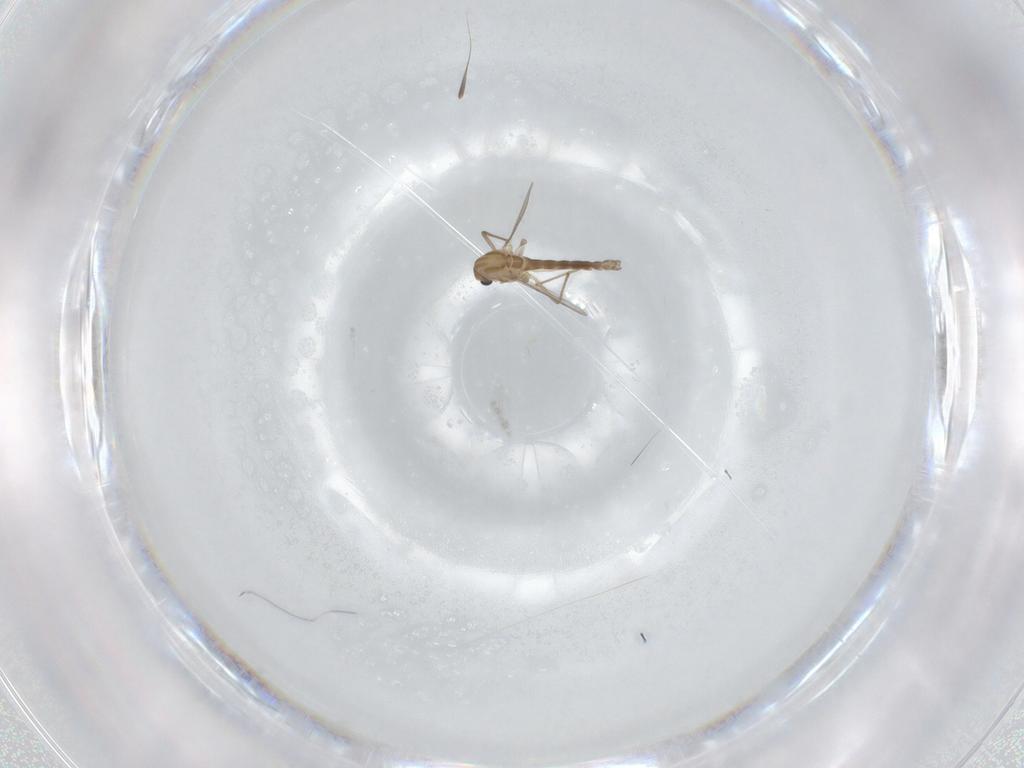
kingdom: Animalia
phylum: Arthropoda
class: Insecta
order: Diptera
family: Chironomidae
